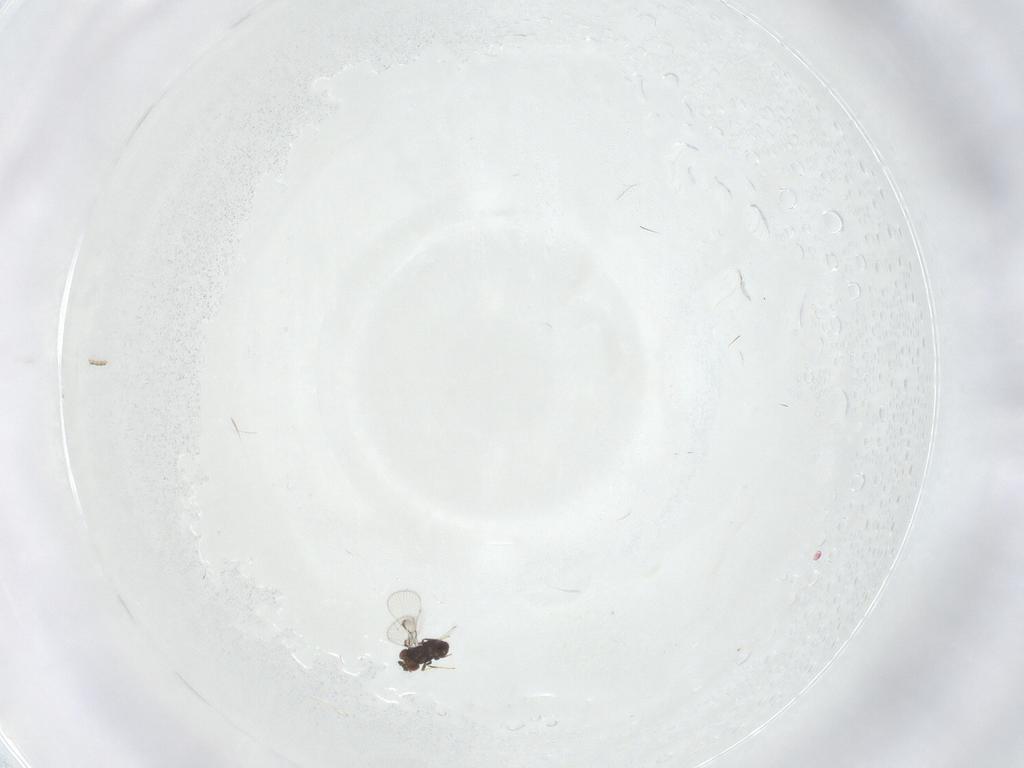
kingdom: Animalia
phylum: Arthropoda
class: Insecta
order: Hymenoptera
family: Trichogrammatidae
